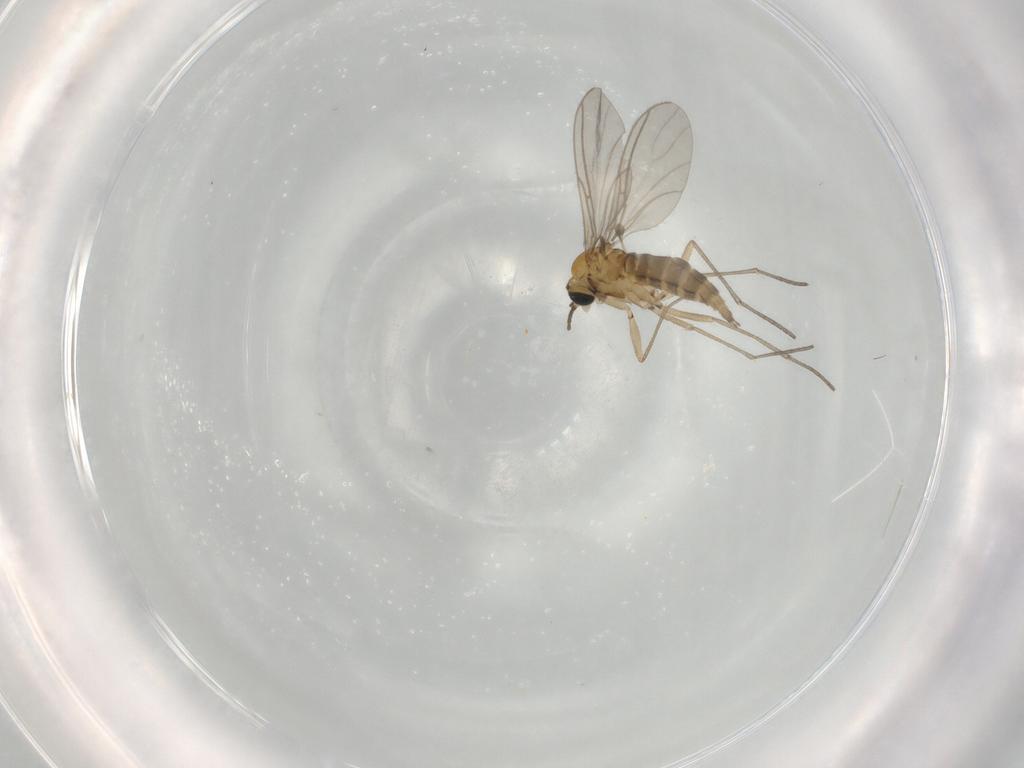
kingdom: Animalia
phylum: Arthropoda
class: Insecta
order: Diptera
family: Sciaridae
